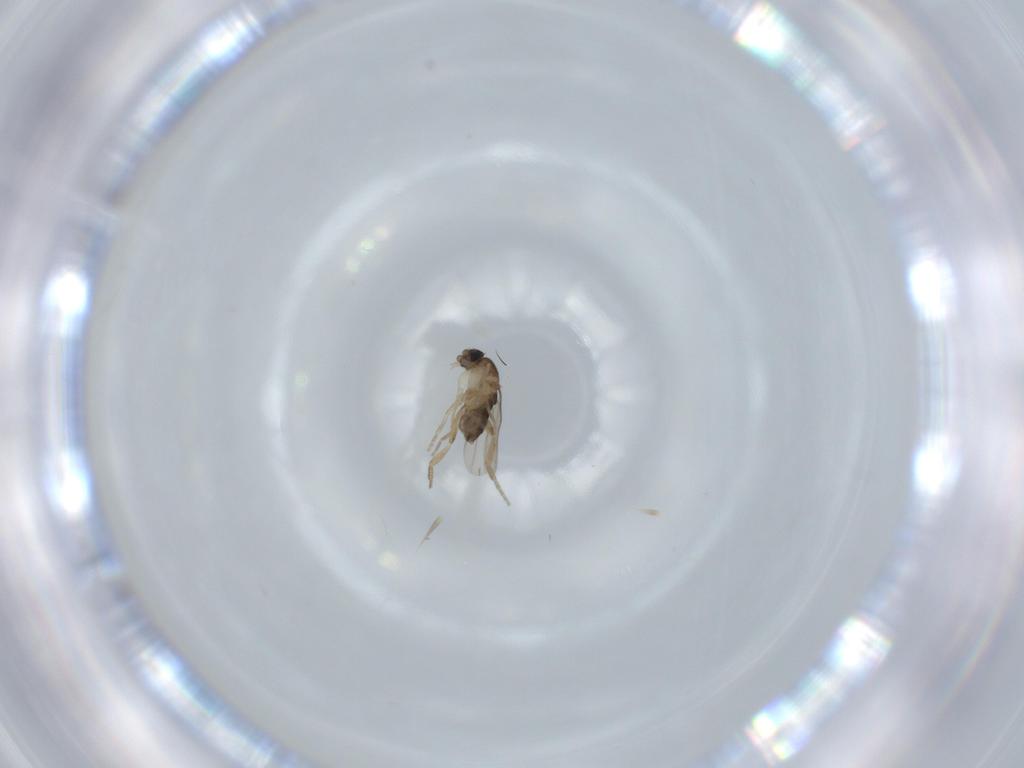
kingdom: Animalia
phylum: Arthropoda
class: Insecta
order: Diptera
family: Phoridae
